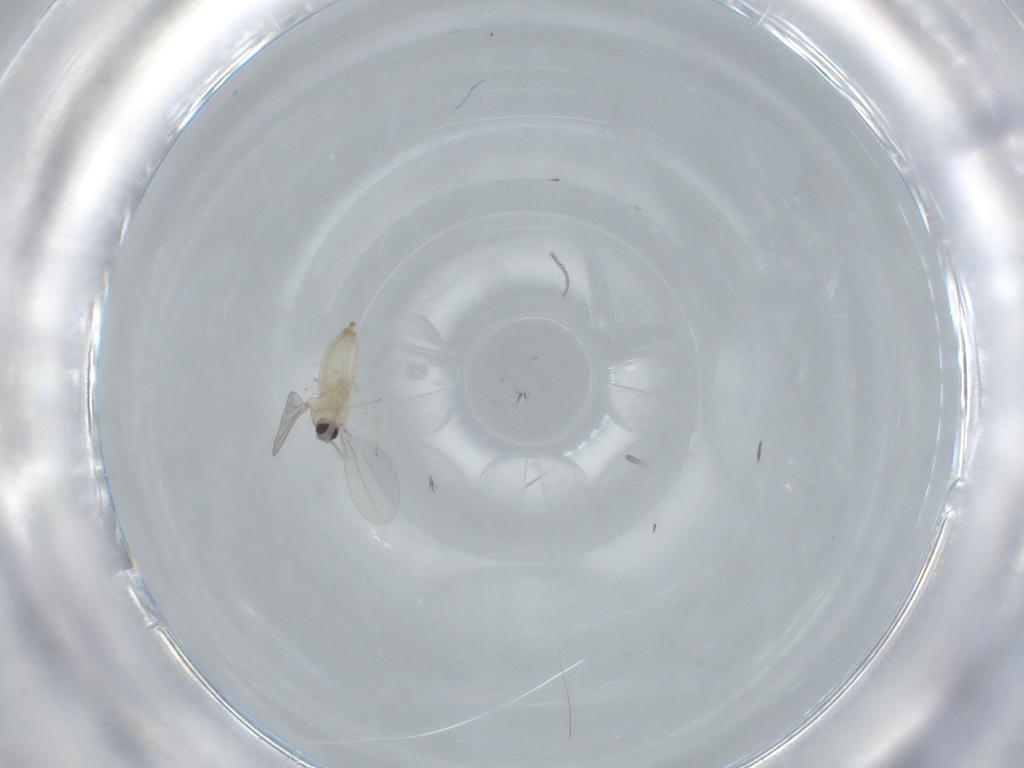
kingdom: Animalia
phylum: Arthropoda
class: Insecta
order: Diptera
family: Cecidomyiidae
